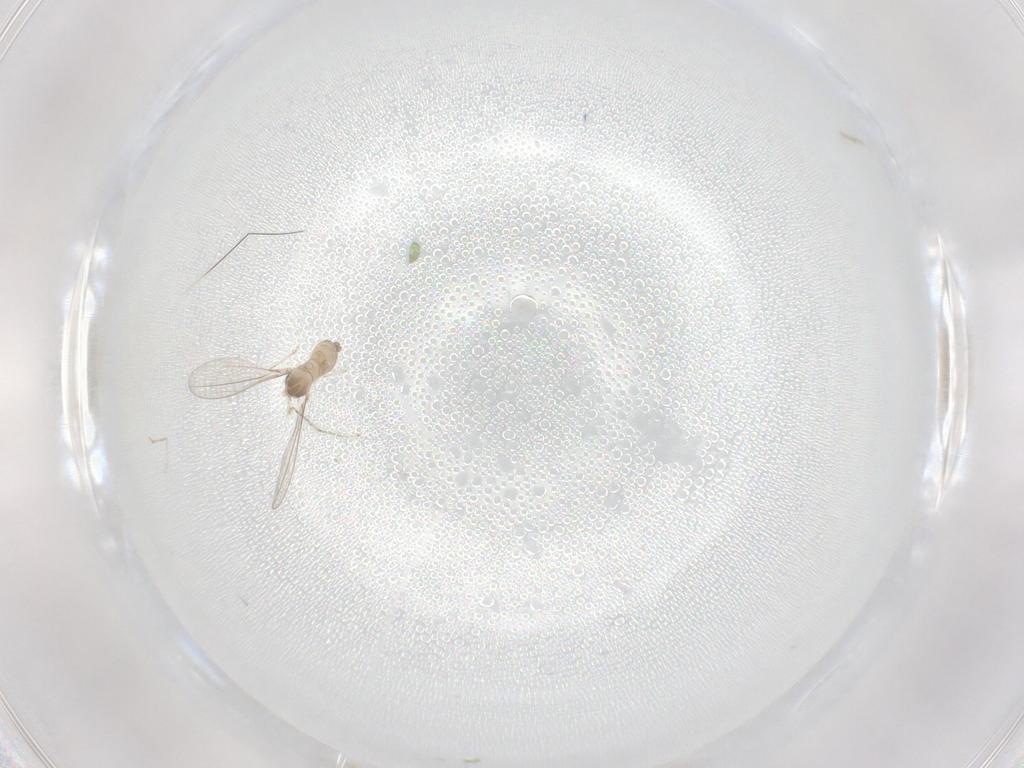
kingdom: Animalia
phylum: Arthropoda
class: Insecta
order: Diptera
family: Cecidomyiidae
